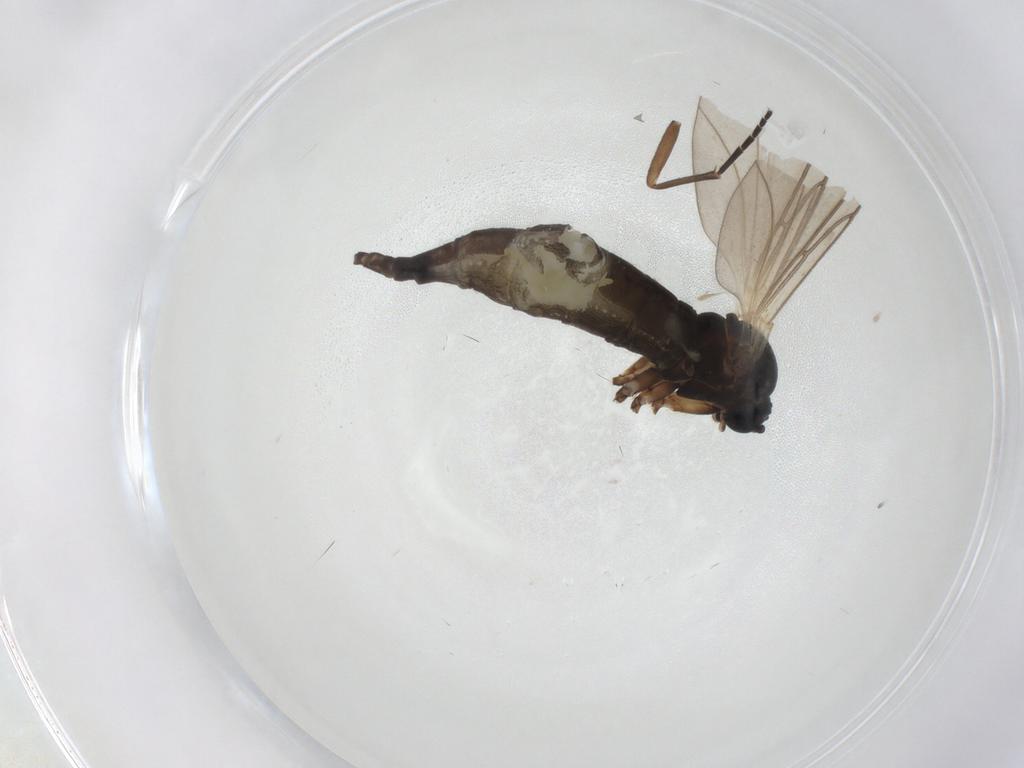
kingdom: Animalia
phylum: Arthropoda
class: Insecta
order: Diptera
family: Sciaridae
